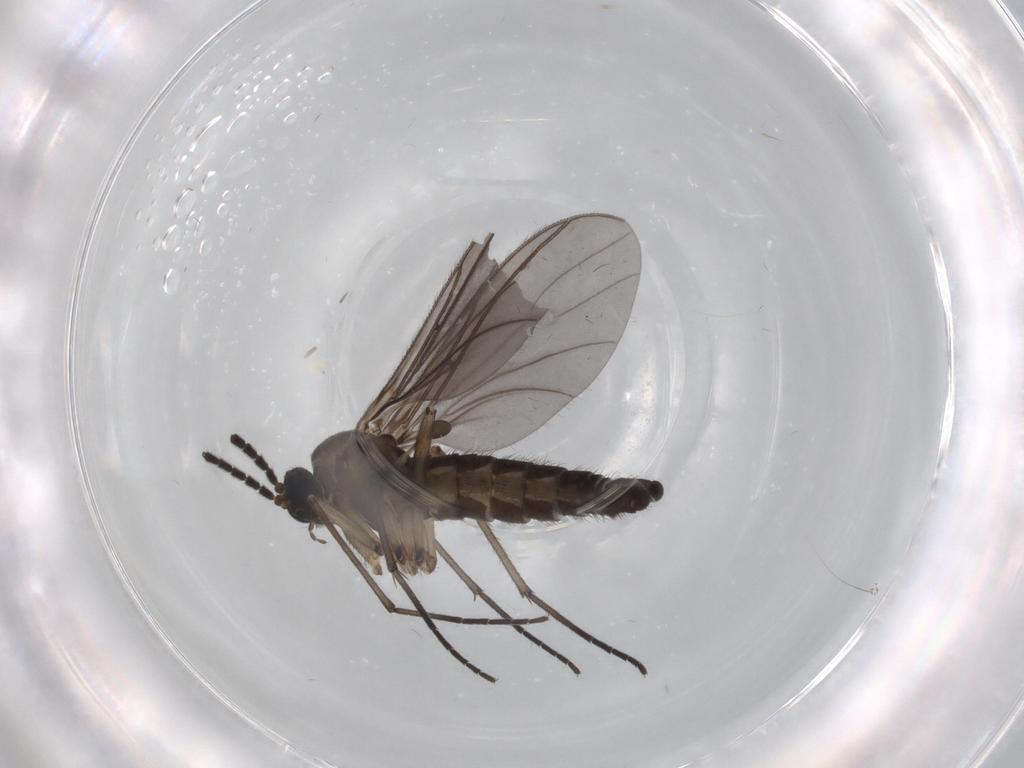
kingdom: Animalia
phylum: Arthropoda
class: Insecta
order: Diptera
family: Sciaridae
